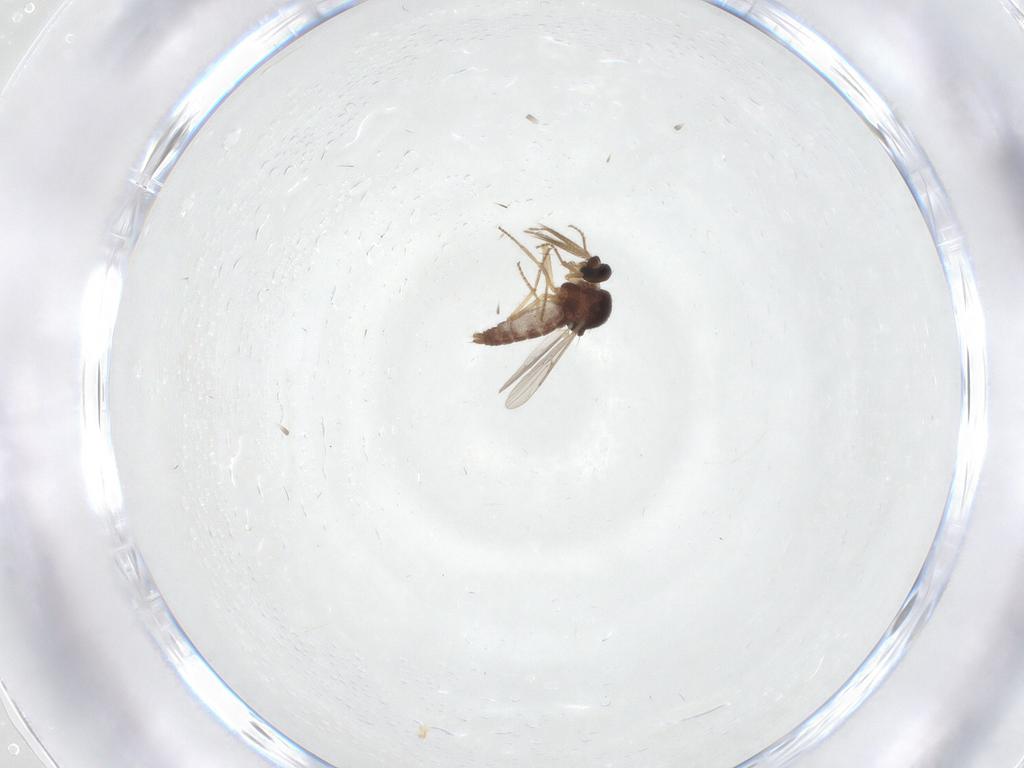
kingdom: Animalia
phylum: Arthropoda
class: Insecta
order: Diptera
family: Ceratopogonidae
